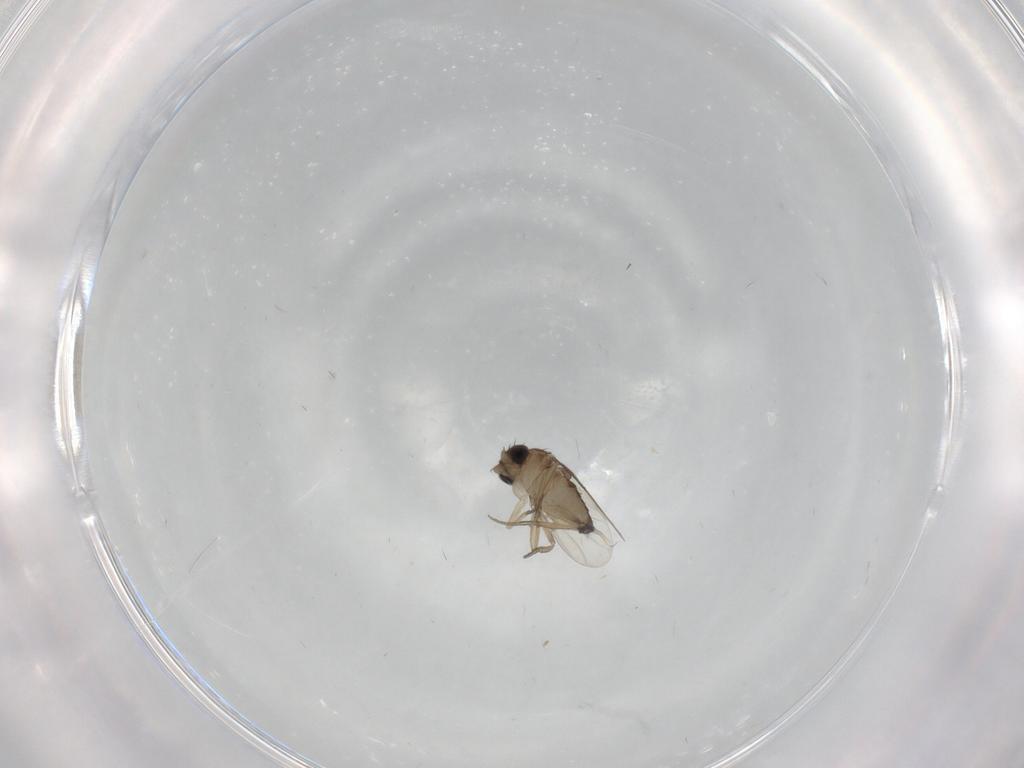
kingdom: Animalia
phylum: Arthropoda
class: Insecta
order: Diptera
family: Phoridae
